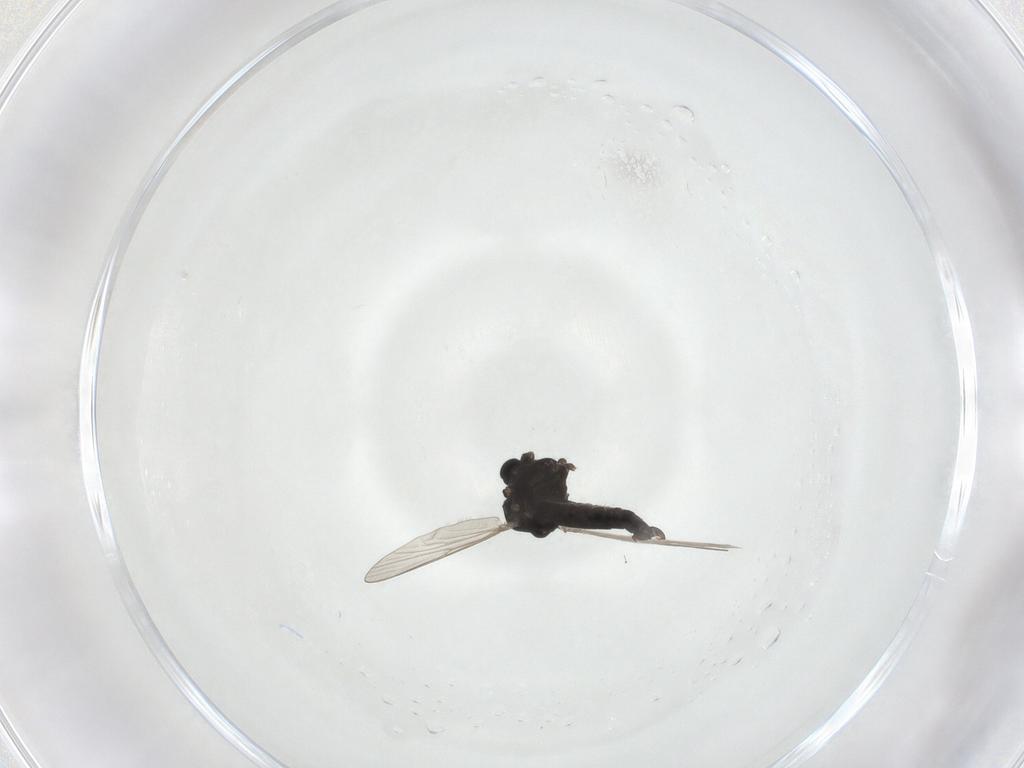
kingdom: Animalia
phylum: Arthropoda
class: Insecta
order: Diptera
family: Chironomidae
